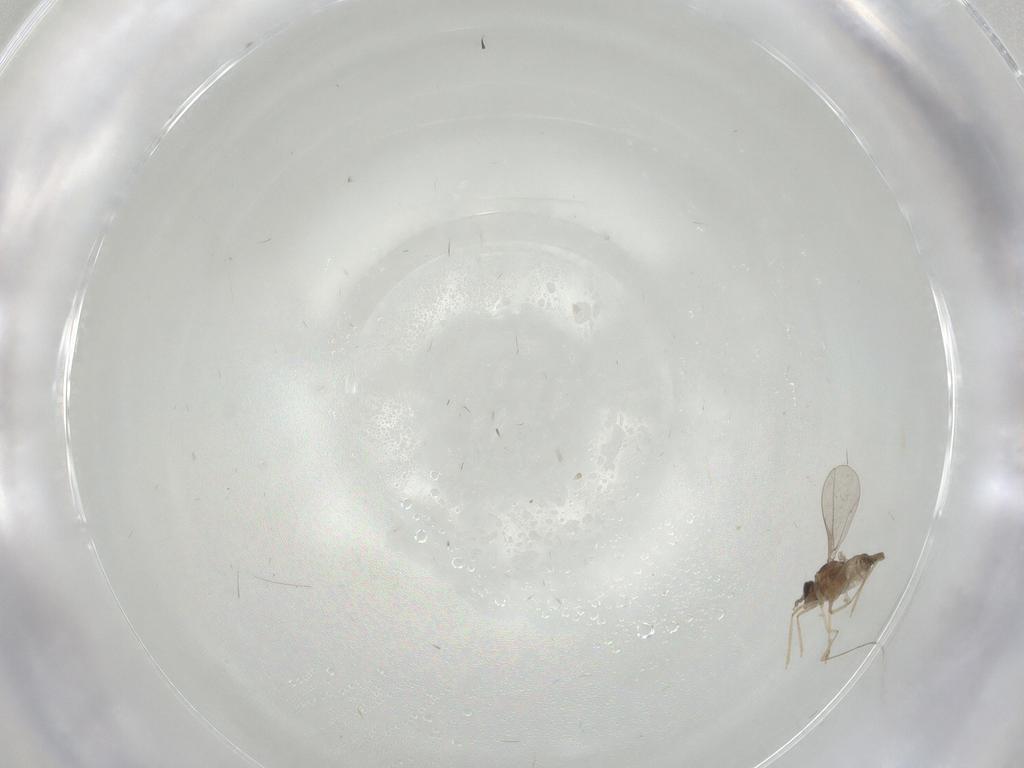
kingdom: Animalia
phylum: Arthropoda
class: Insecta
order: Diptera
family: Cecidomyiidae
